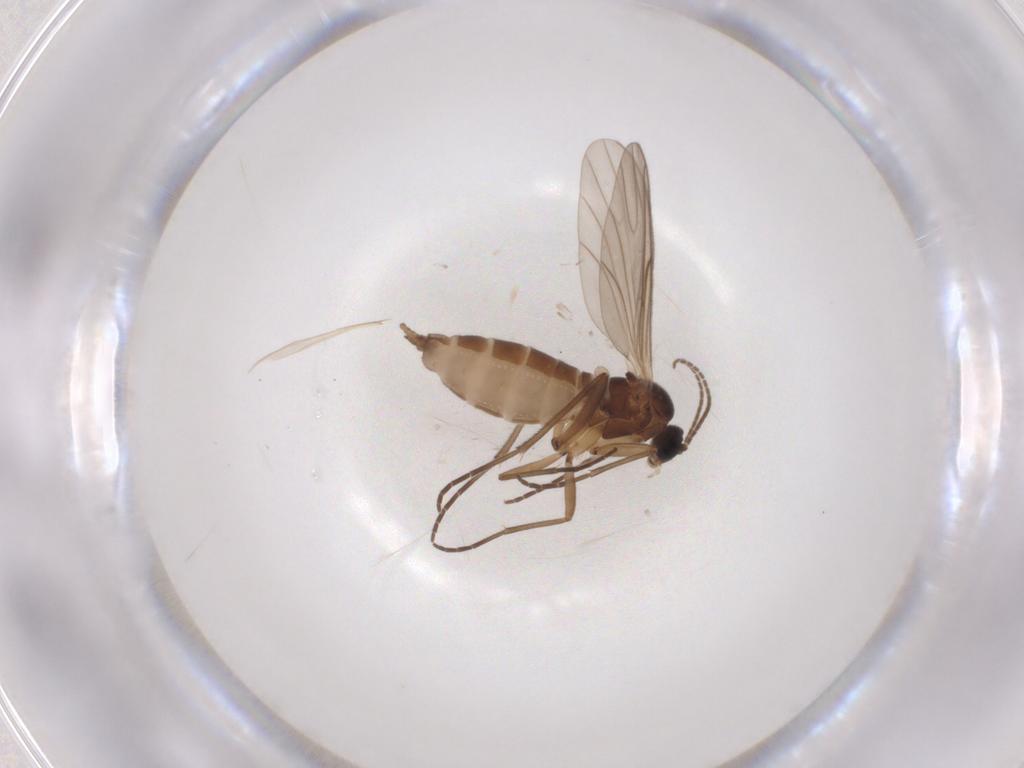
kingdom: Animalia
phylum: Arthropoda
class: Insecta
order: Diptera
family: Sciaridae
